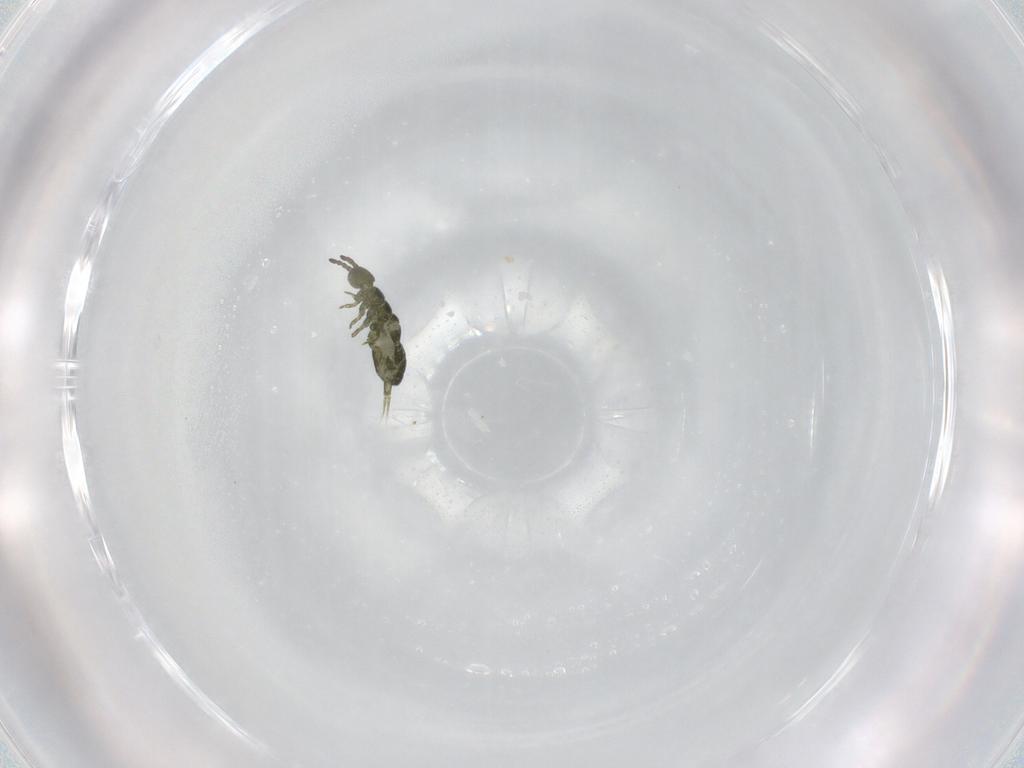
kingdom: Animalia
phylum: Arthropoda
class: Collembola
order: Entomobryomorpha
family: Isotomidae
